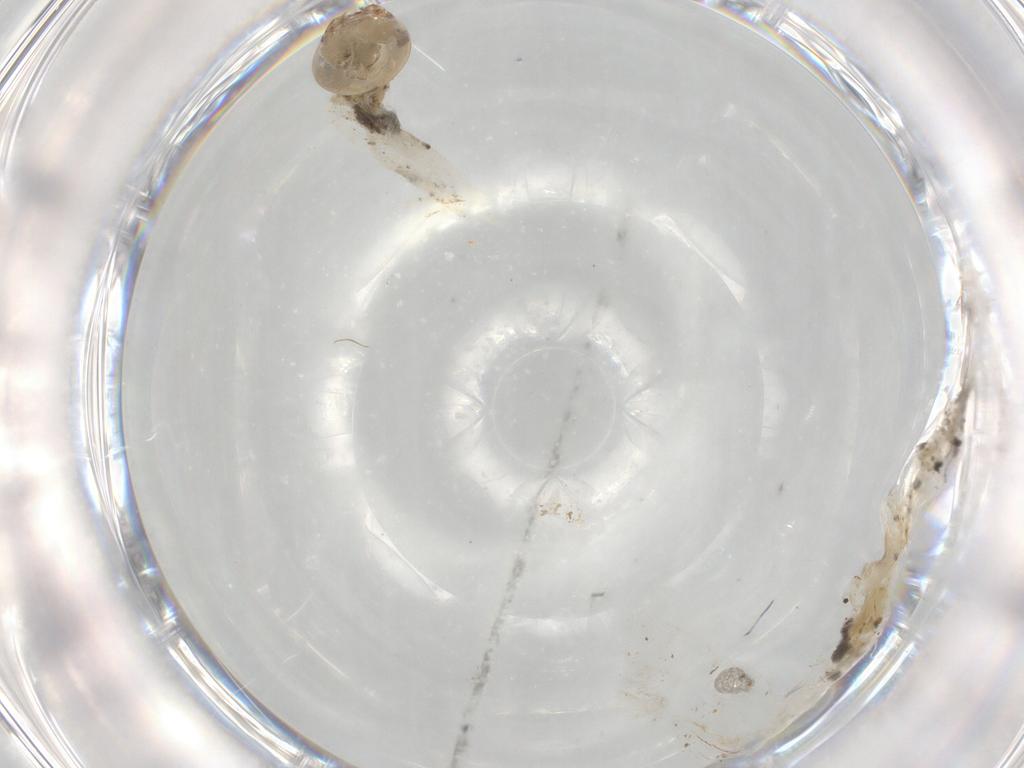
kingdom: Animalia
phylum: Arthropoda
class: Insecta
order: Diptera
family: Chironomidae
